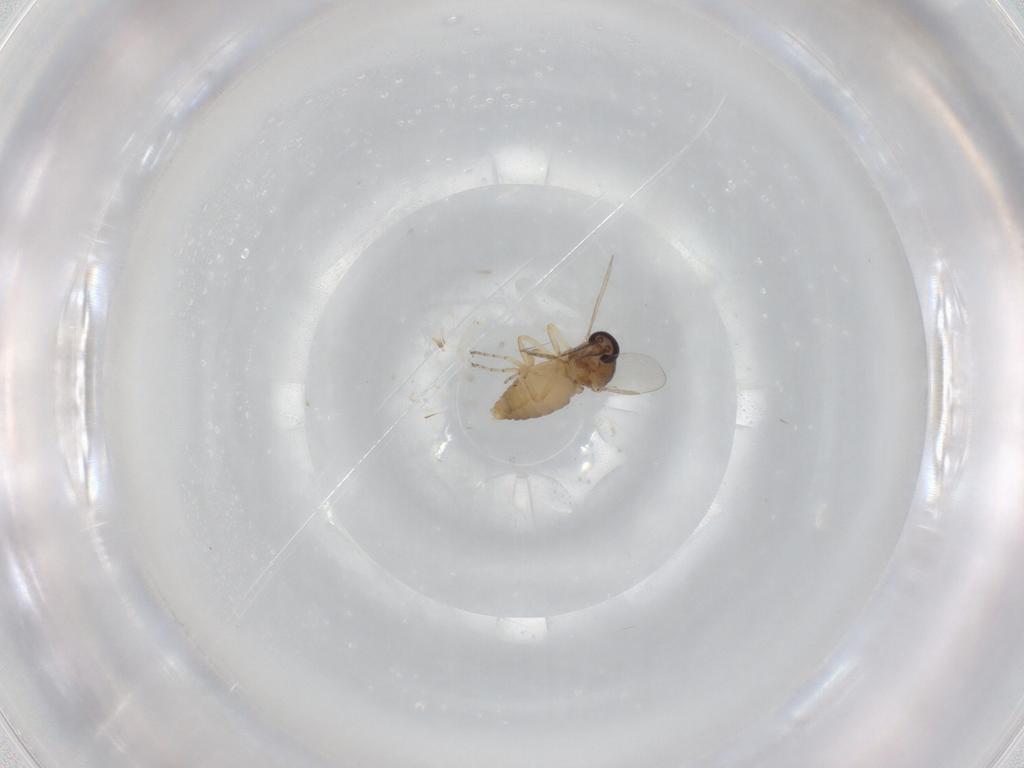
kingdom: Animalia
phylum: Arthropoda
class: Insecta
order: Diptera
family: Ceratopogonidae
